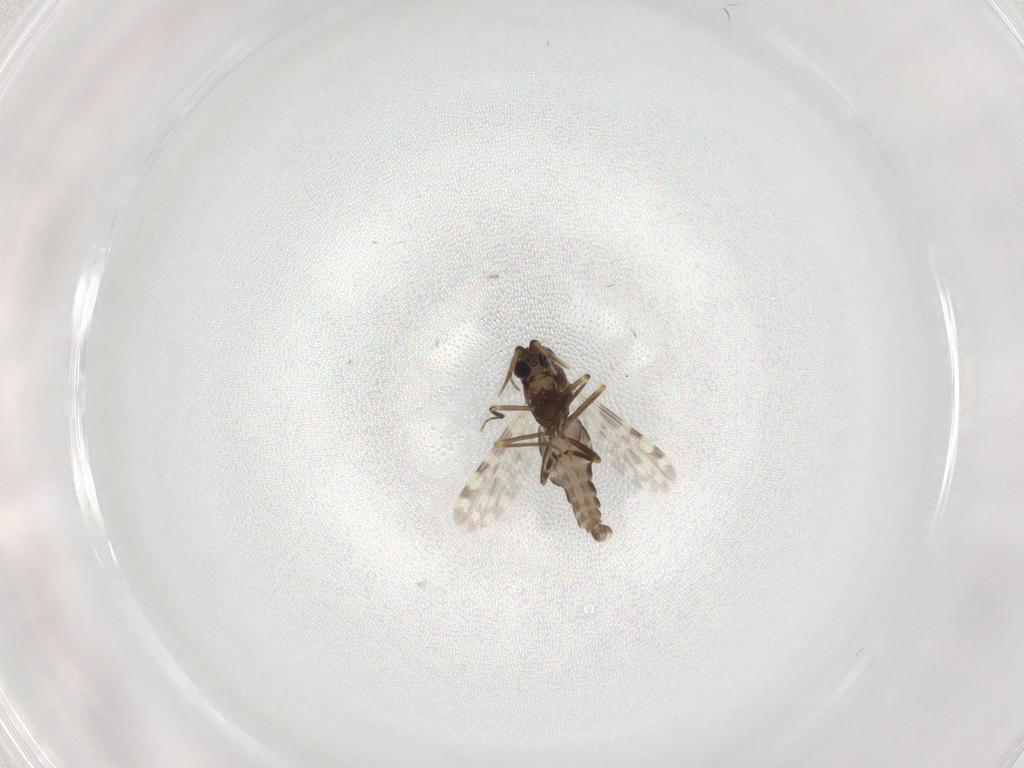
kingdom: Animalia
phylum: Arthropoda
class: Insecta
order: Diptera
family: Ceratopogonidae
